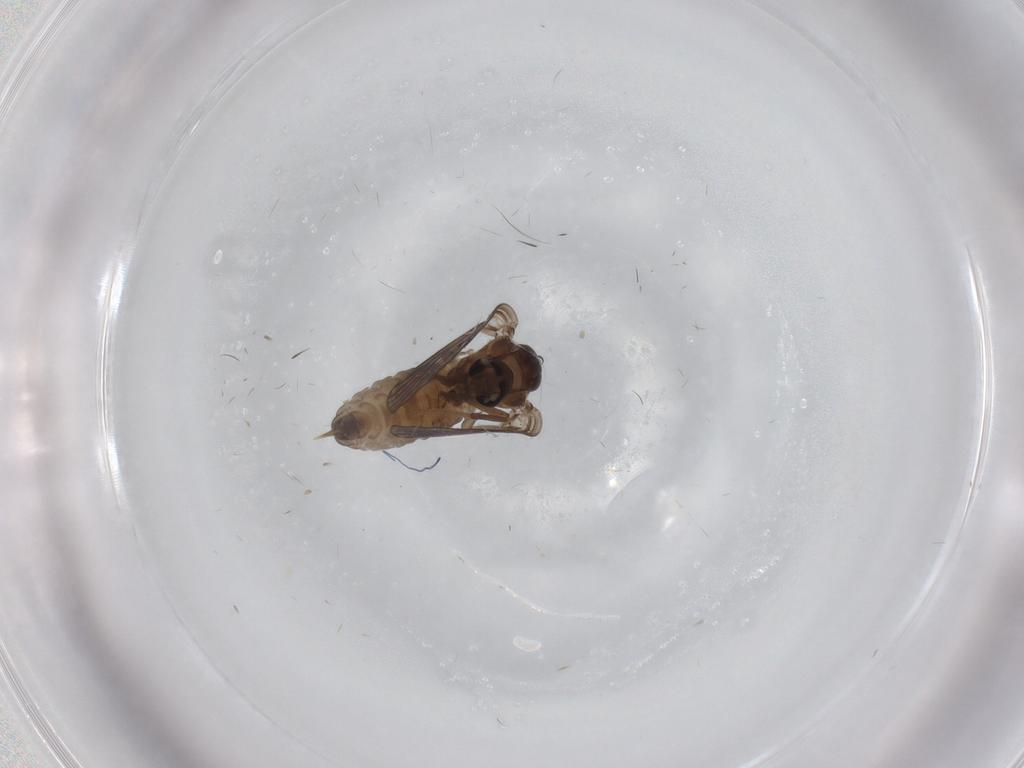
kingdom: Animalia
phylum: Arthropoda
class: Insecta
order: Diptera
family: Psychodidae
